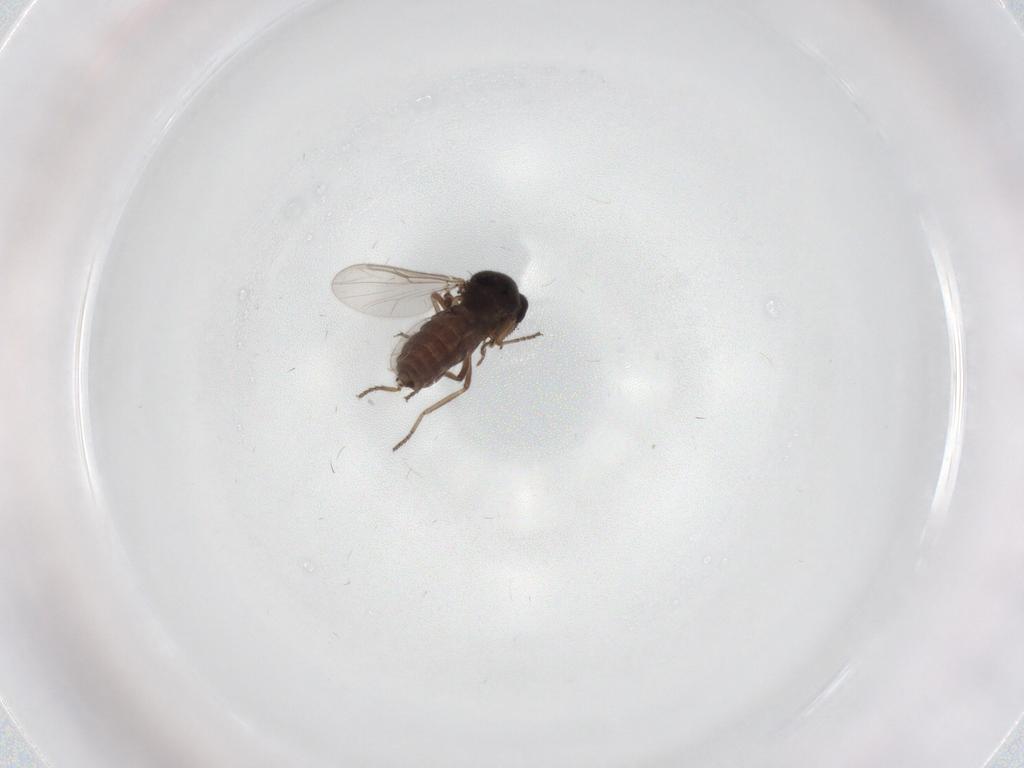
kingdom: Animalia
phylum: Arthropoda
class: Insecta
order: Diptera
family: Ceratopogonidae
